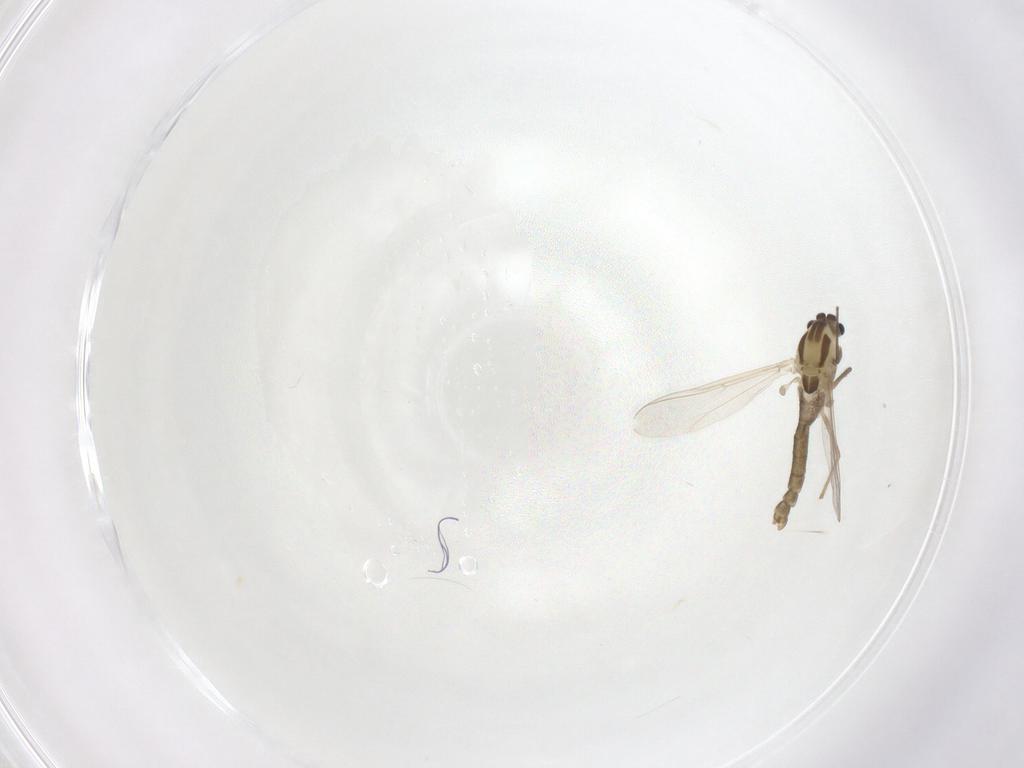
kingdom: Animalia
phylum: Arthropoda
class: Insecta
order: Diptera
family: Chironomidae
